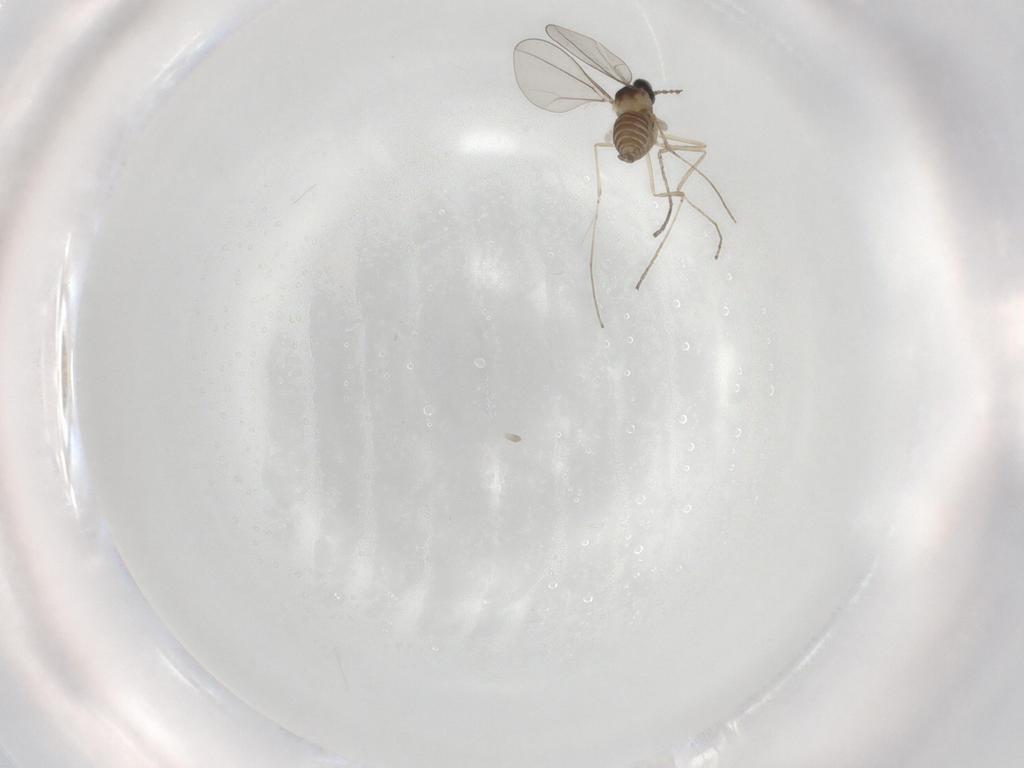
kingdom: Animalia
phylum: Arthropoda
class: Insecta
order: Diptera
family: Cecidomyiidae
